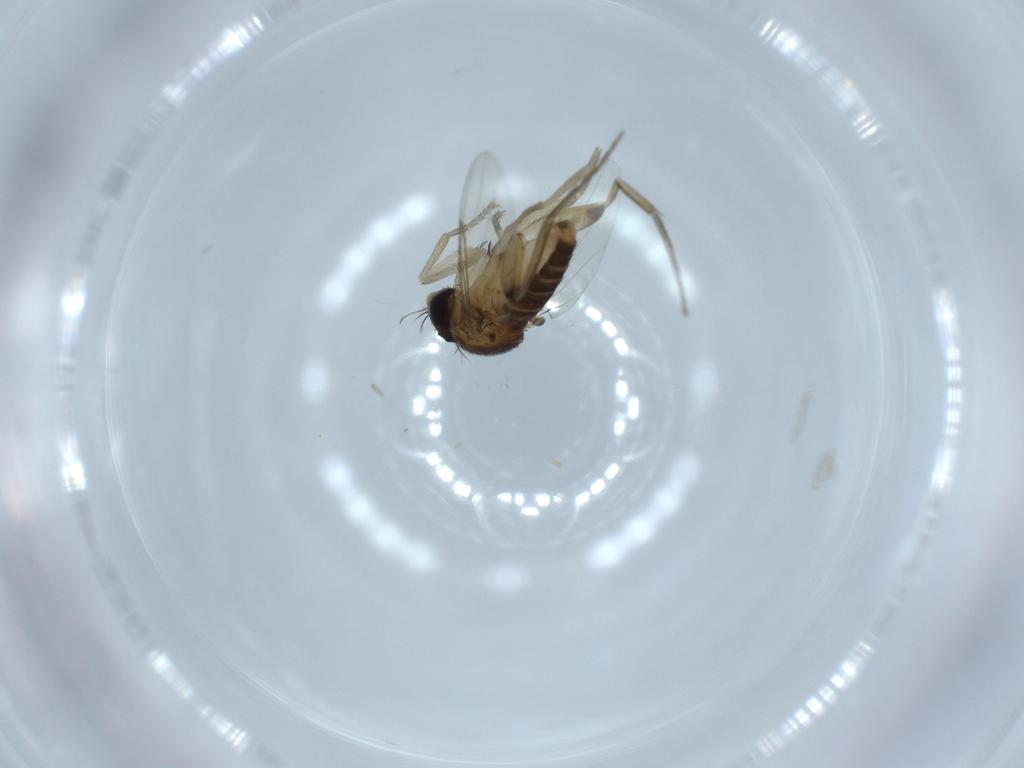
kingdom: Animalia
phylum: Arthropoda
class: Insecta
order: Diptera
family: Phoridae
